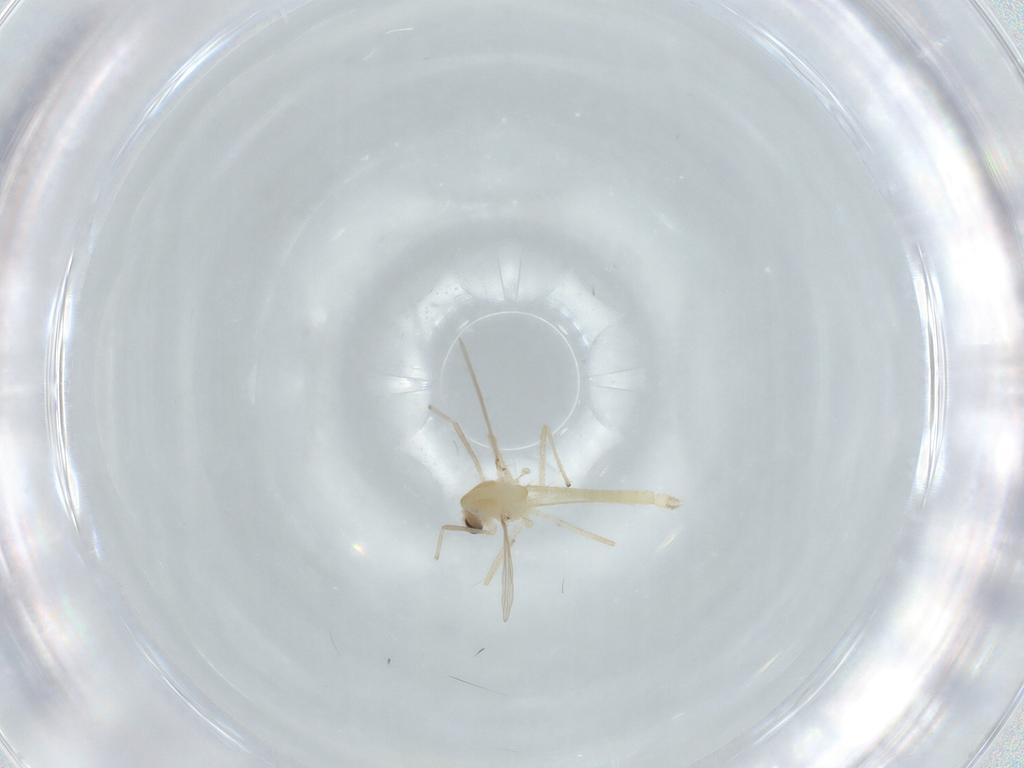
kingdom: Animalia
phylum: Arthropoda
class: Insecta
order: Diptera
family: Chironomidae
